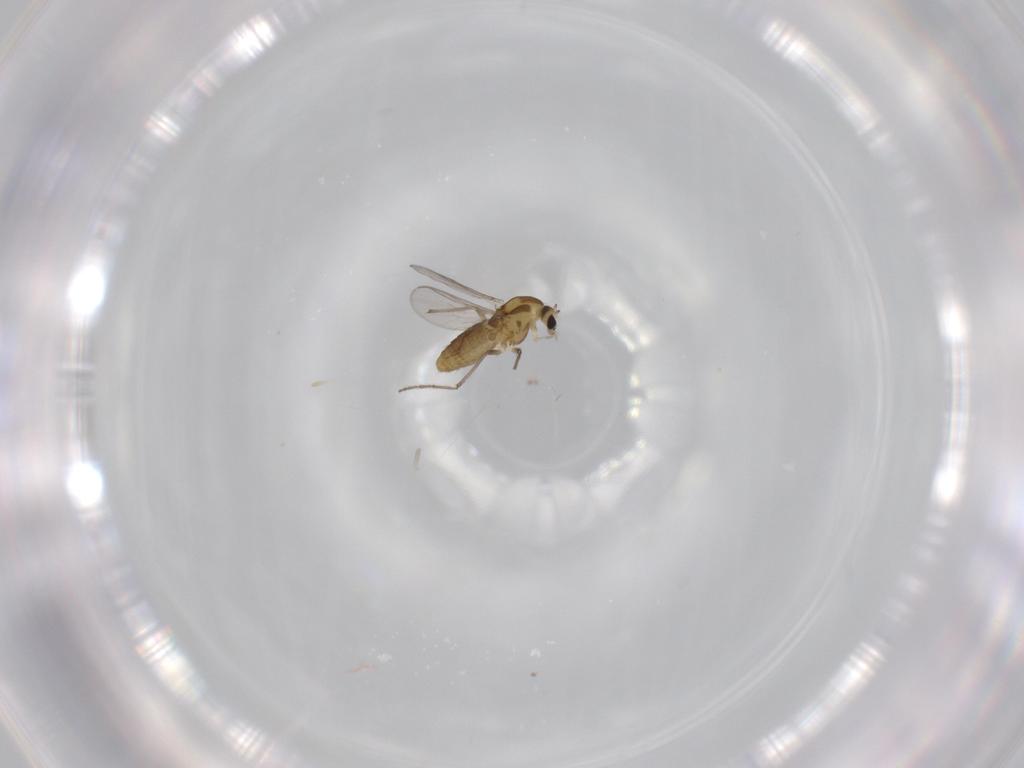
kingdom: Animalia
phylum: Arthropoda
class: Insecta
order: Diptera
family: Chironomidae
